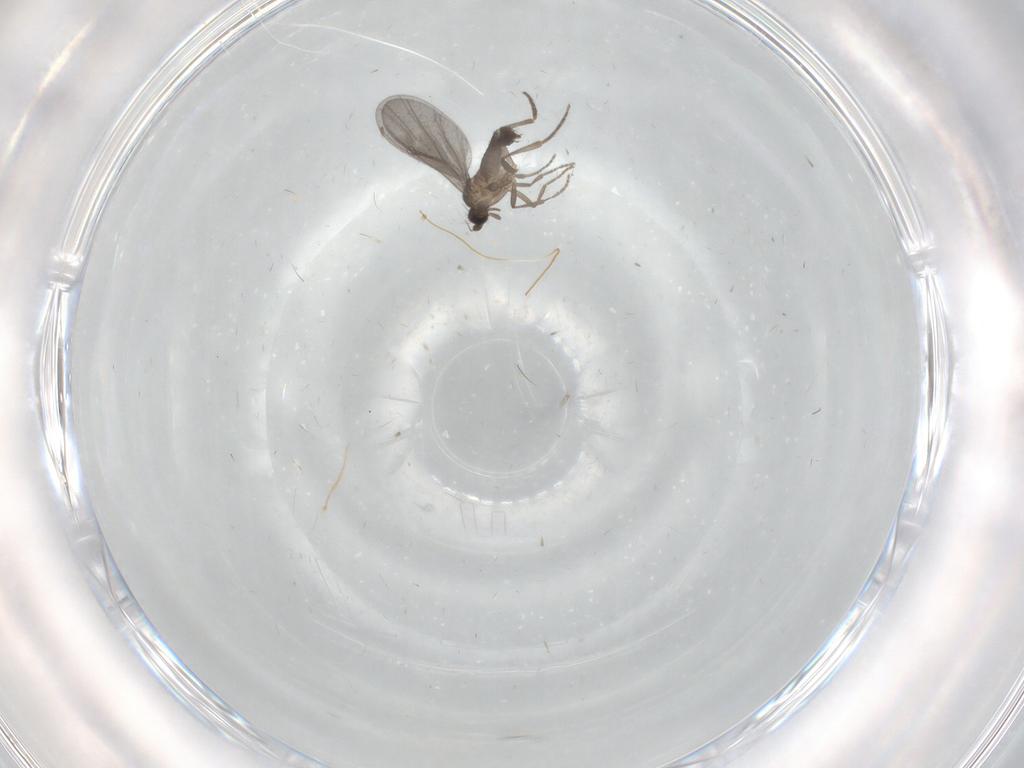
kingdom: Animalia
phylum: Arthropoda
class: Insecta
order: Diptera
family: Phoridae
